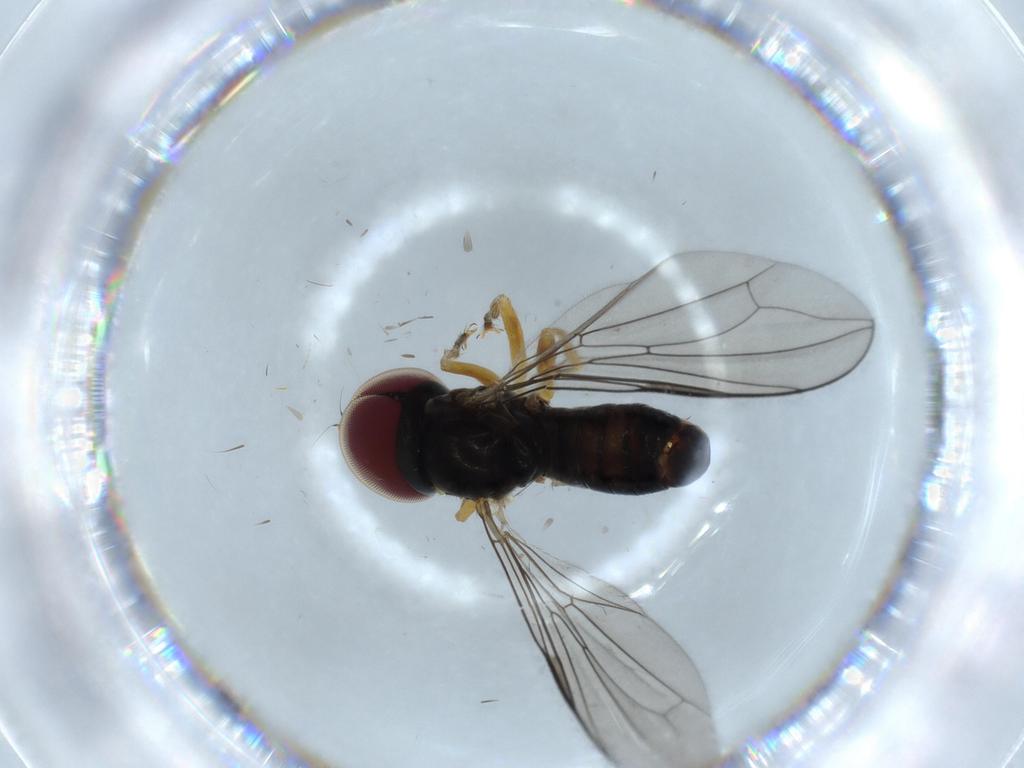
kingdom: Animalia
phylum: Arthropoda
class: Insecta
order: Diptera
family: Pipunculidae
